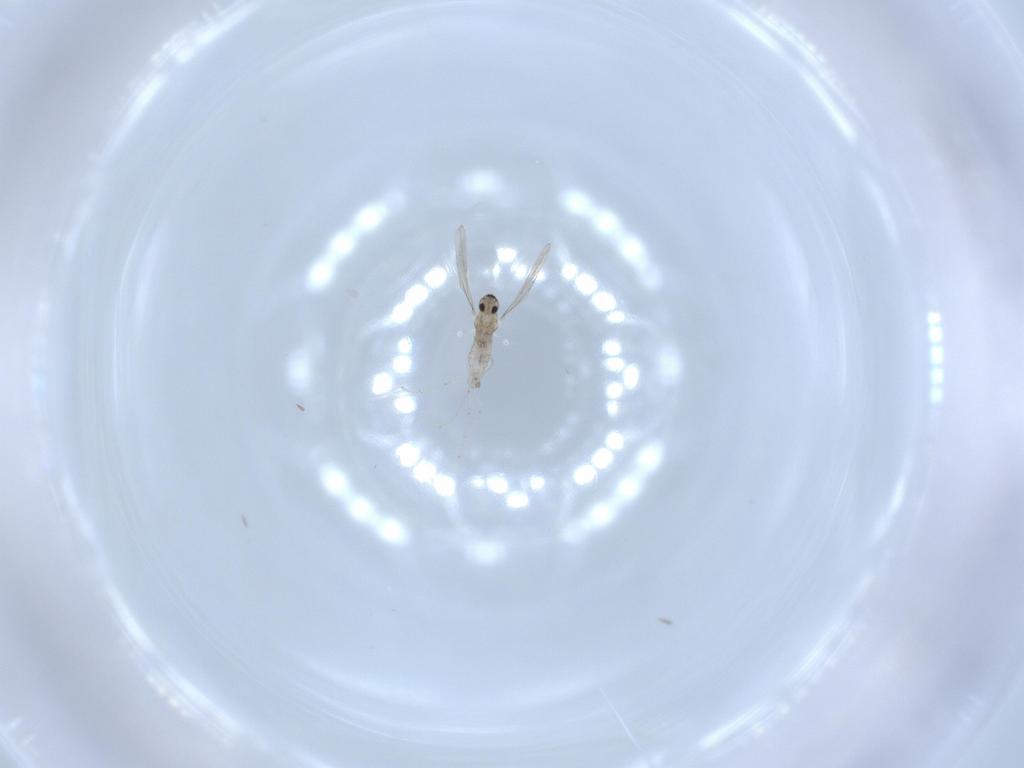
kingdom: Animalia
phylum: Arthropoda
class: Insecta
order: Diptera
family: Cecidomyiidae
